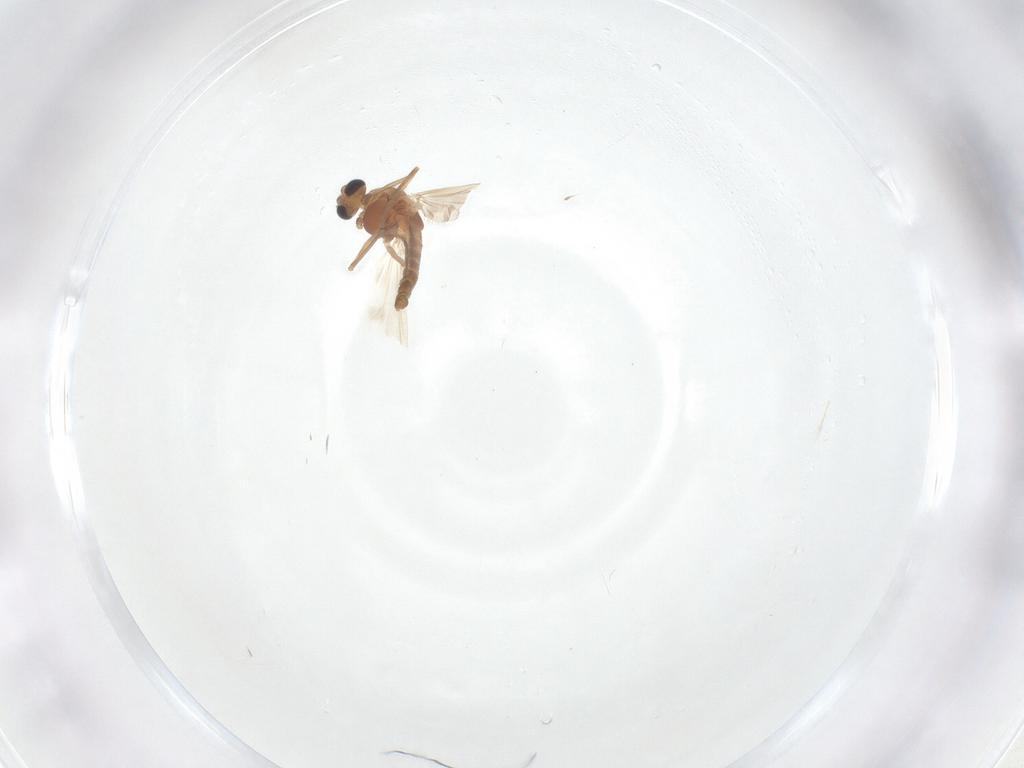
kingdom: Animalia
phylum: Arthropoda
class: Insecta
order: Diptera
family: Chironomidae
